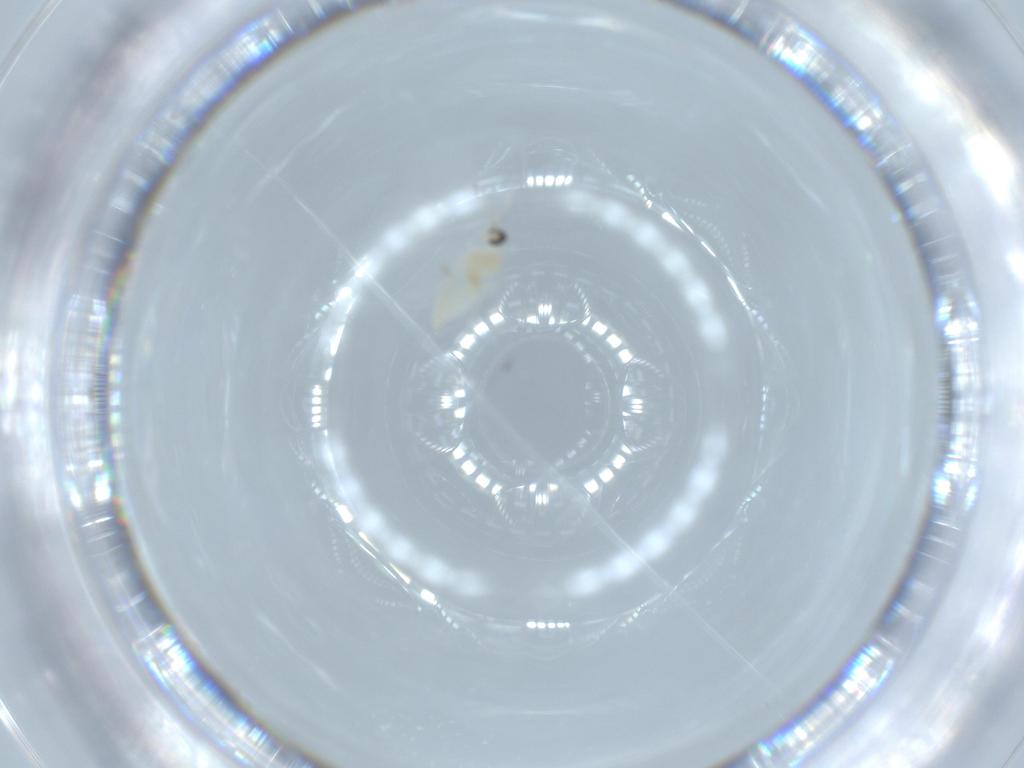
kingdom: Animalia
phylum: Arthropoda
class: Insecta
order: Diptera
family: Cecidomyiidae
